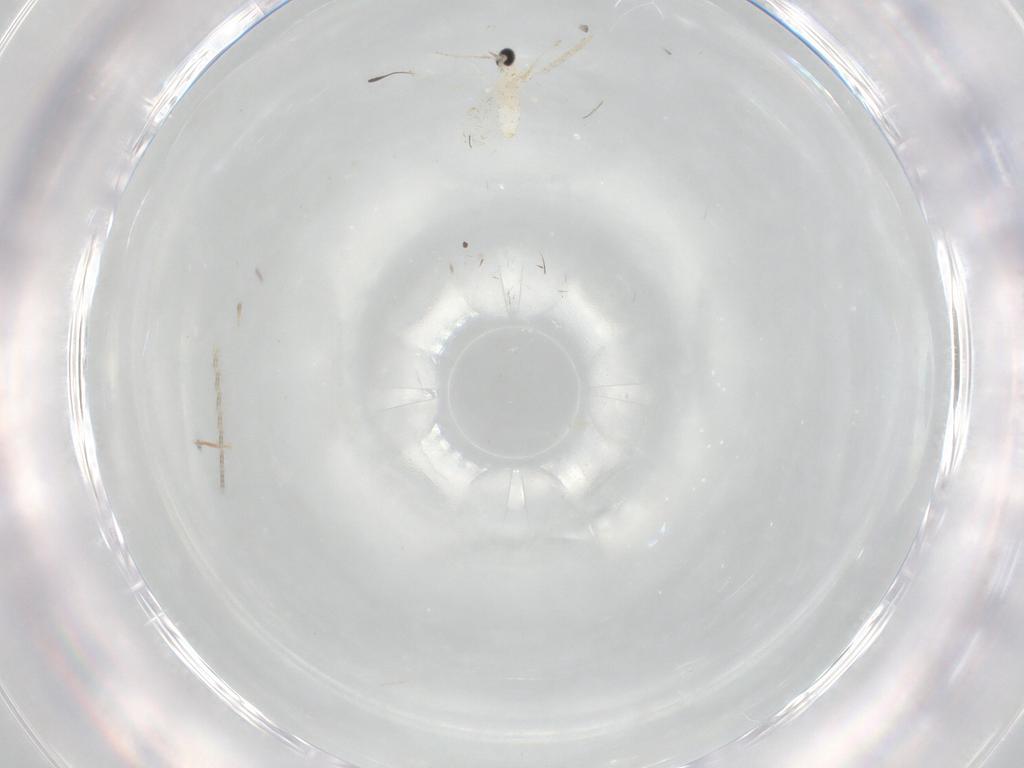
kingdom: Animalia
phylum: Arthropoda
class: Insecta
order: Diptera
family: Cecidomyiidae
